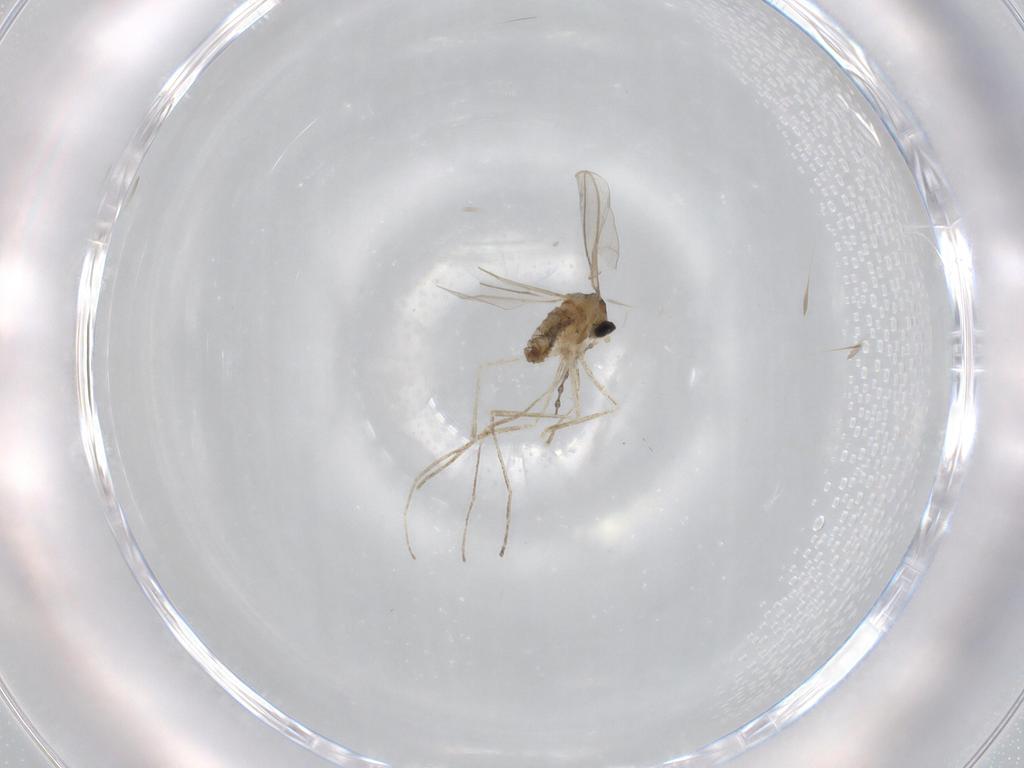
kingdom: Animalia
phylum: Arthropoda
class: Insecta
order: Diptera
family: Cecidomyiidae
